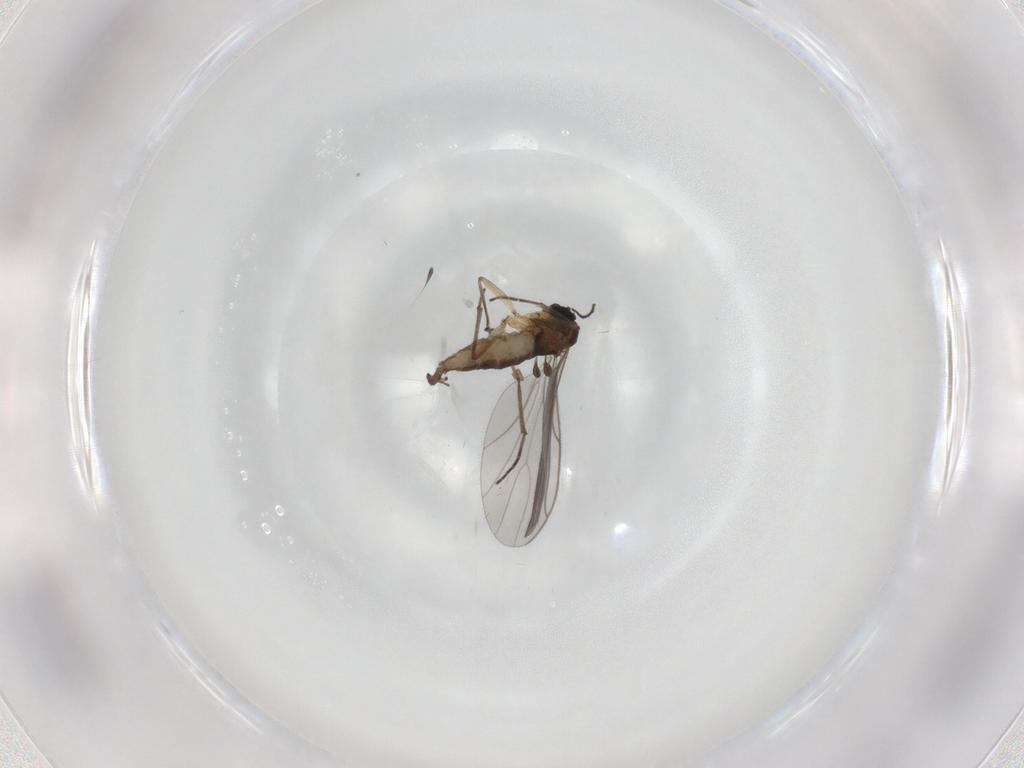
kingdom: Animalia
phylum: Arthropoda
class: Insecta
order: Diptera
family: Sciaridae
